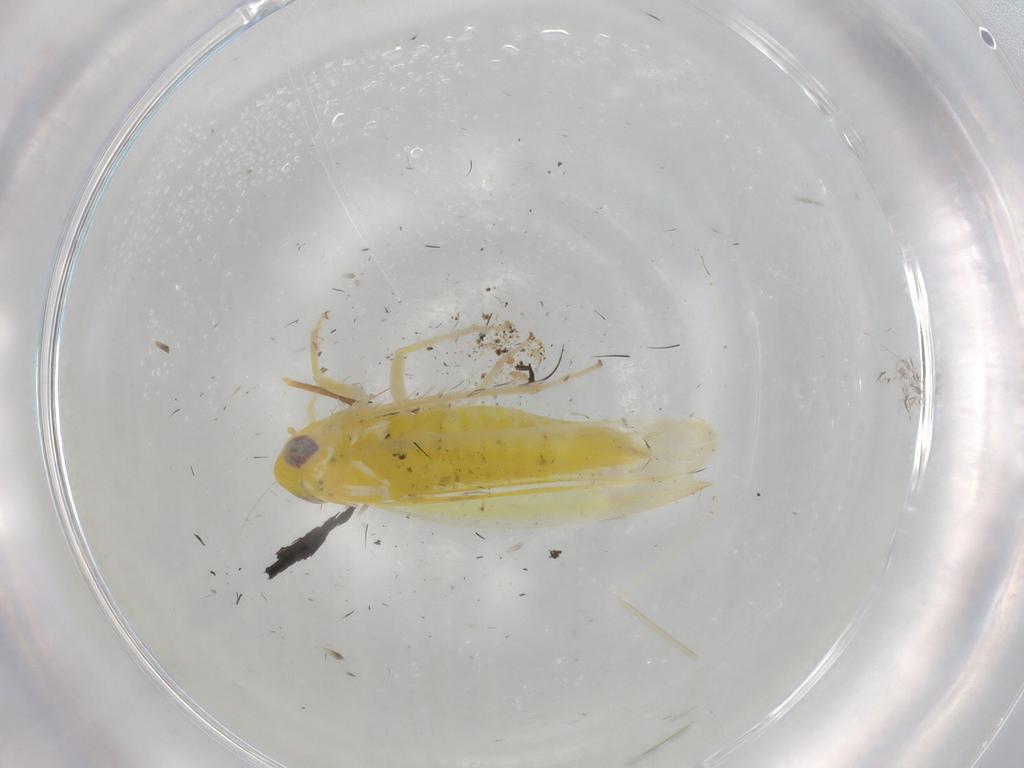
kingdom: Animalia
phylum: Arthropoda
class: Insecta
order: Hemiptera
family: Cicadellidae
